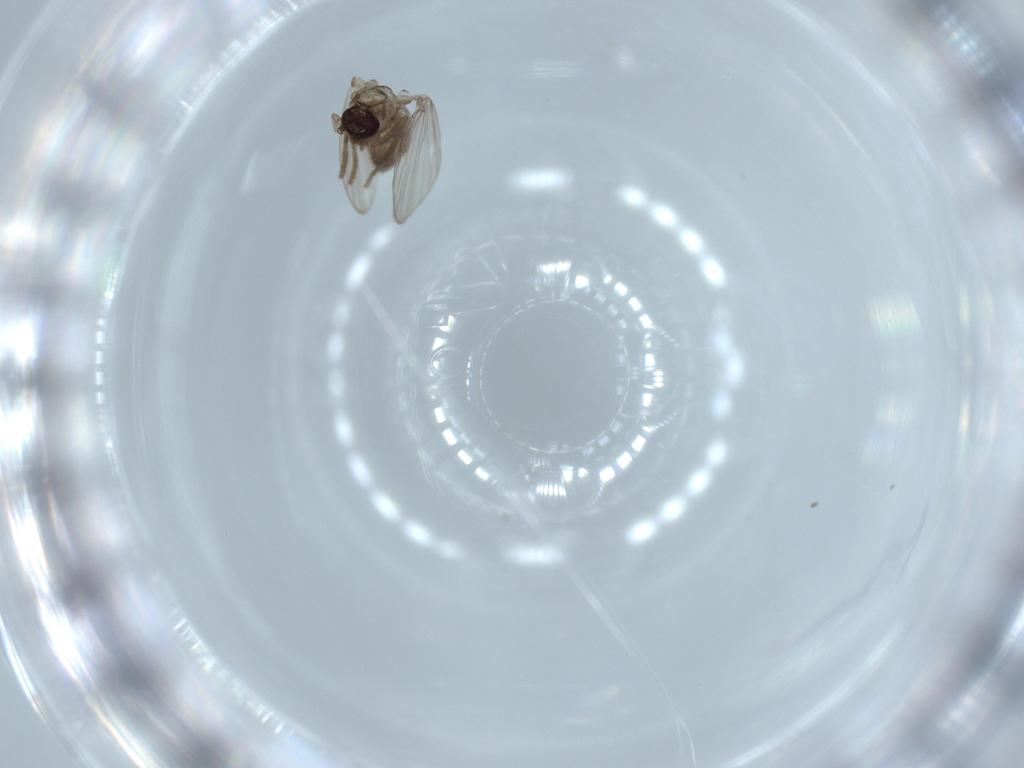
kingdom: Animalia
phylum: Arthropoda
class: Insecta
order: Diptera
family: Psychodidae
